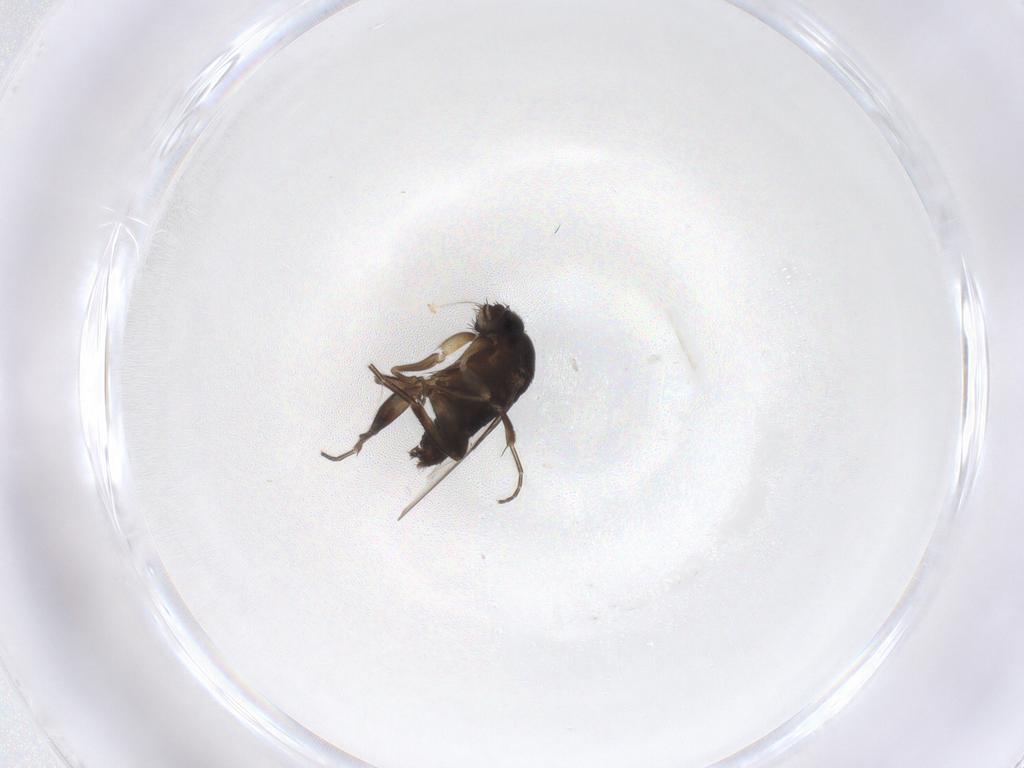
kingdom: Animalia
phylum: Arthropoda
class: Insecta
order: Diptera
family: Phoridae
